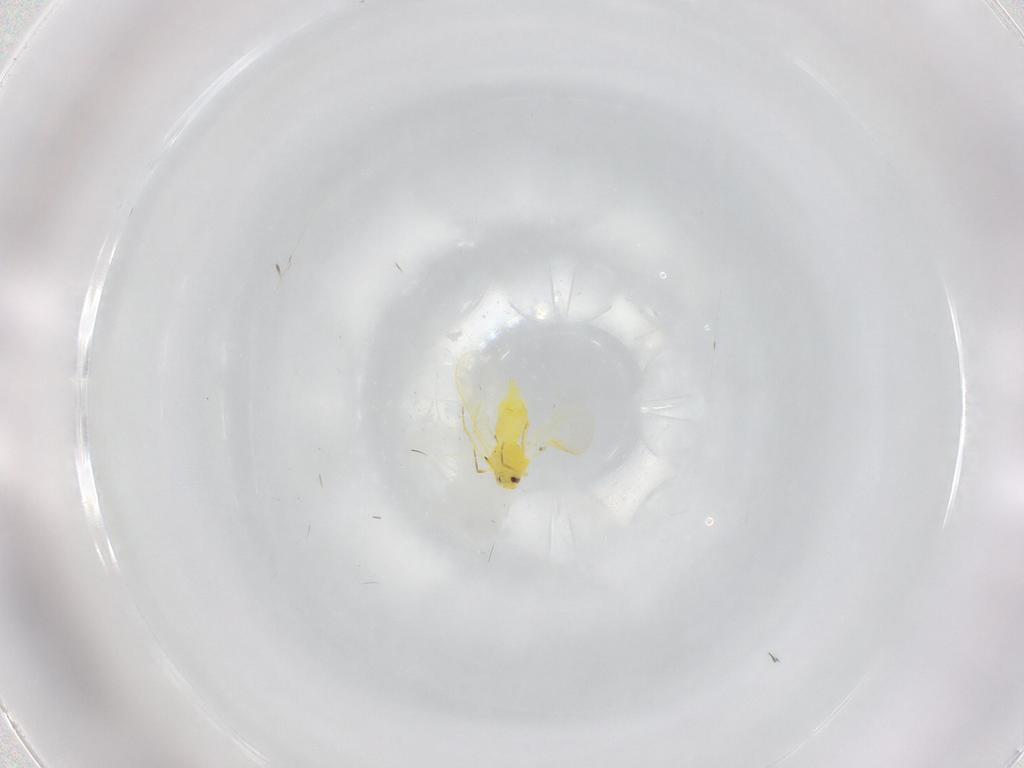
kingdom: Animalia
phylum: Arthropoda
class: Insecta
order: Hemiptera
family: Aleyrodidae
